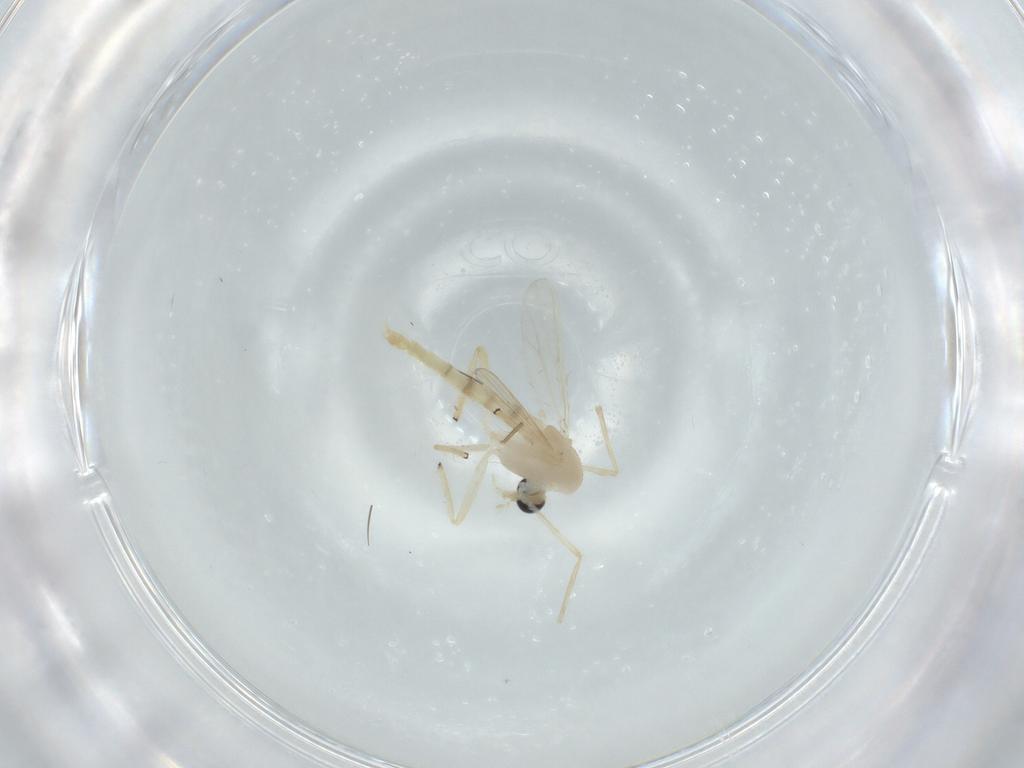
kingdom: Animalia
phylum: Arthropoda
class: Insecta
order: Diptera
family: Chironomidae
